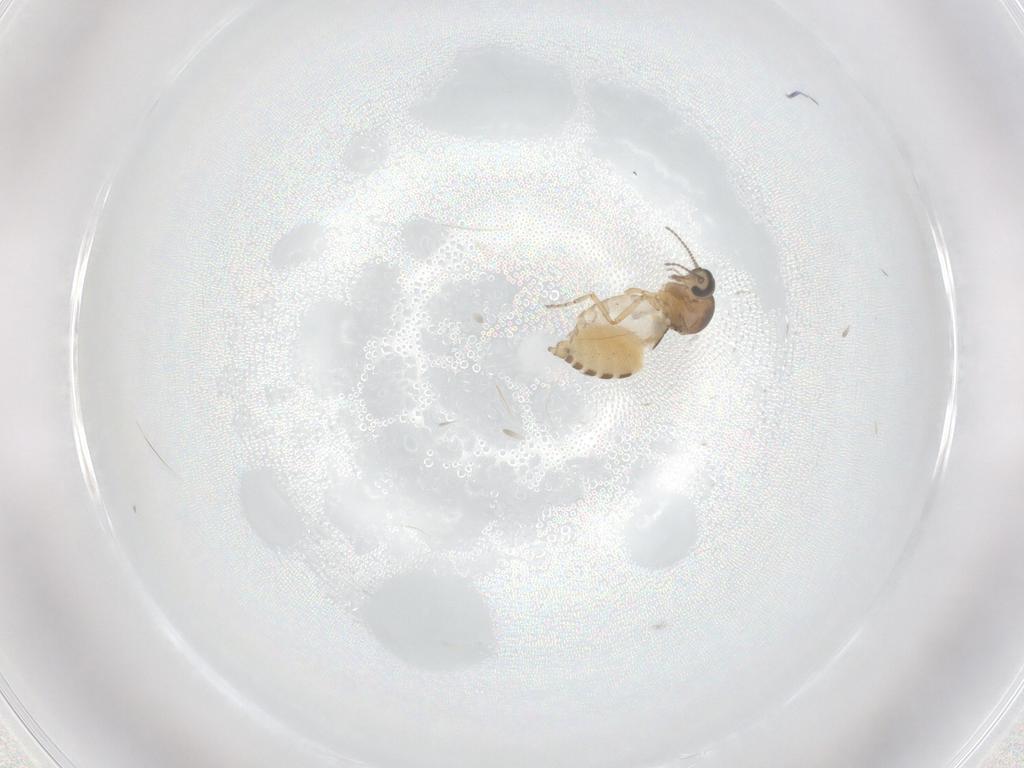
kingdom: Animalia
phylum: Arthropoda
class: Insecta
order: Diptera
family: Ceratopogonidae
